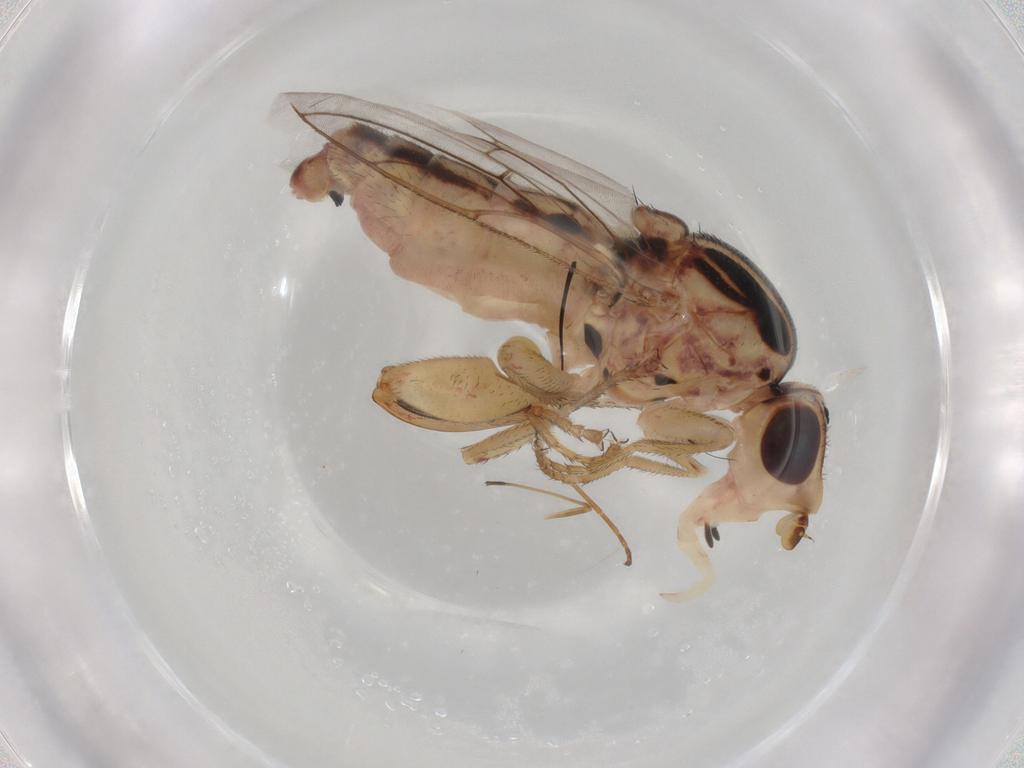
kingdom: Animalia
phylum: Arthropoda
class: Insecta
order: Diptera
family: Chloropidae
